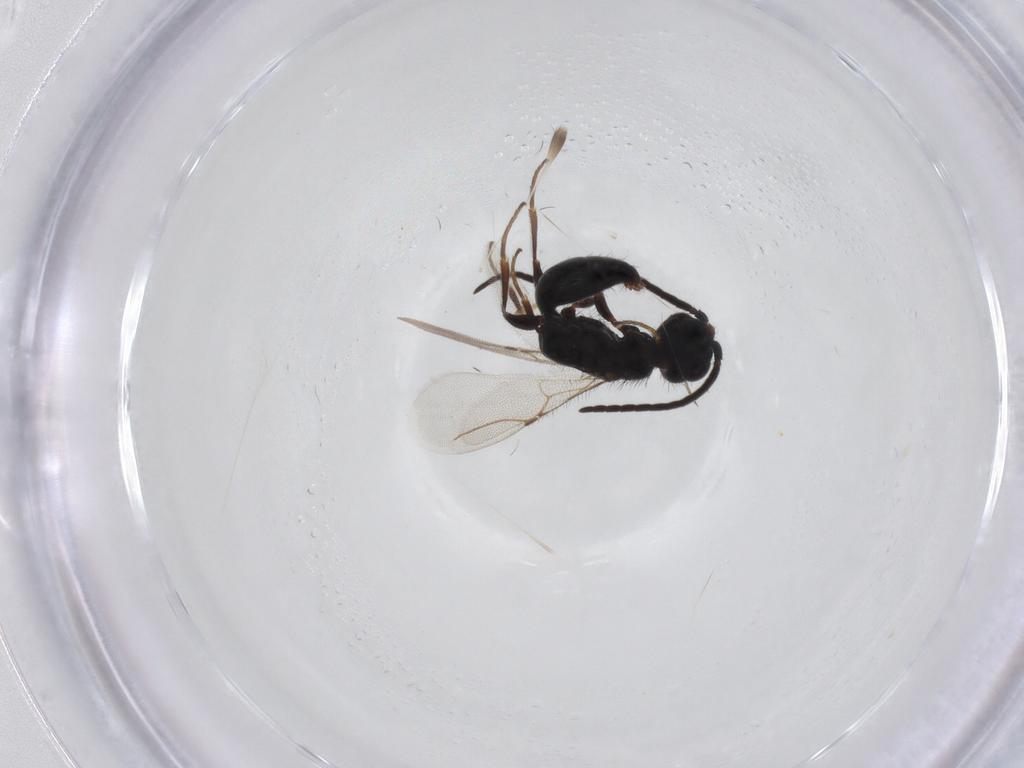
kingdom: Animalia
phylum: Arthropoda
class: Insecta
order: Hymenoptera
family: Bethylidae
